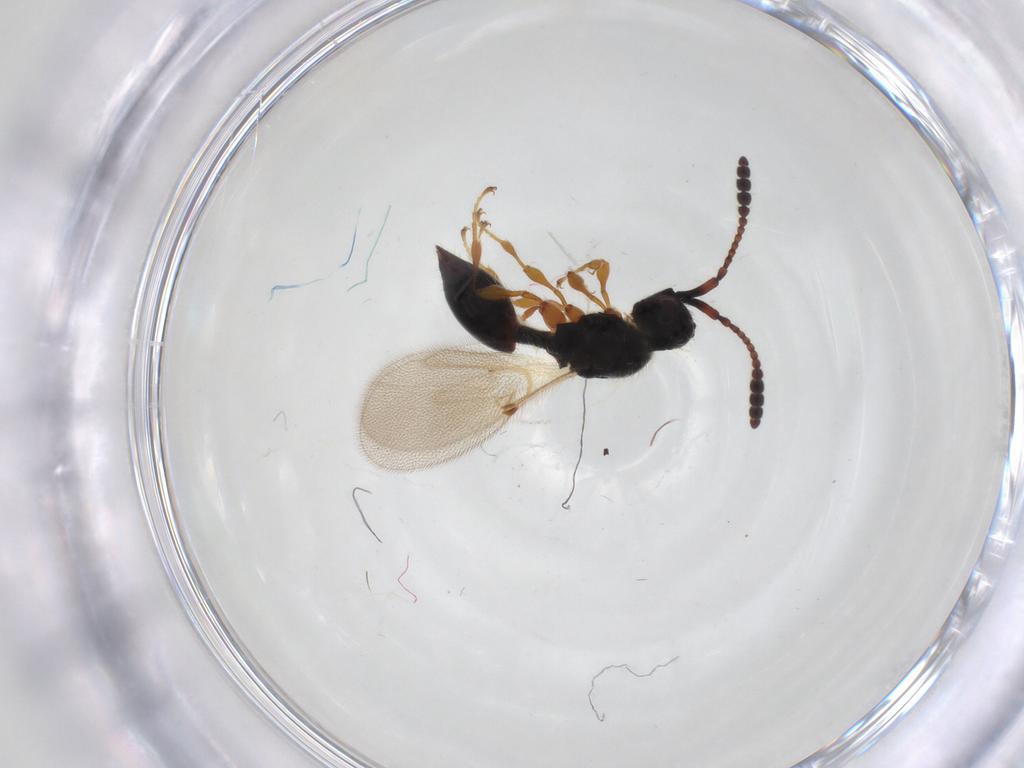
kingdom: Animalia
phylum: Arthropoda
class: Insecta
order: Hymenoptera
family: Diapriidae
